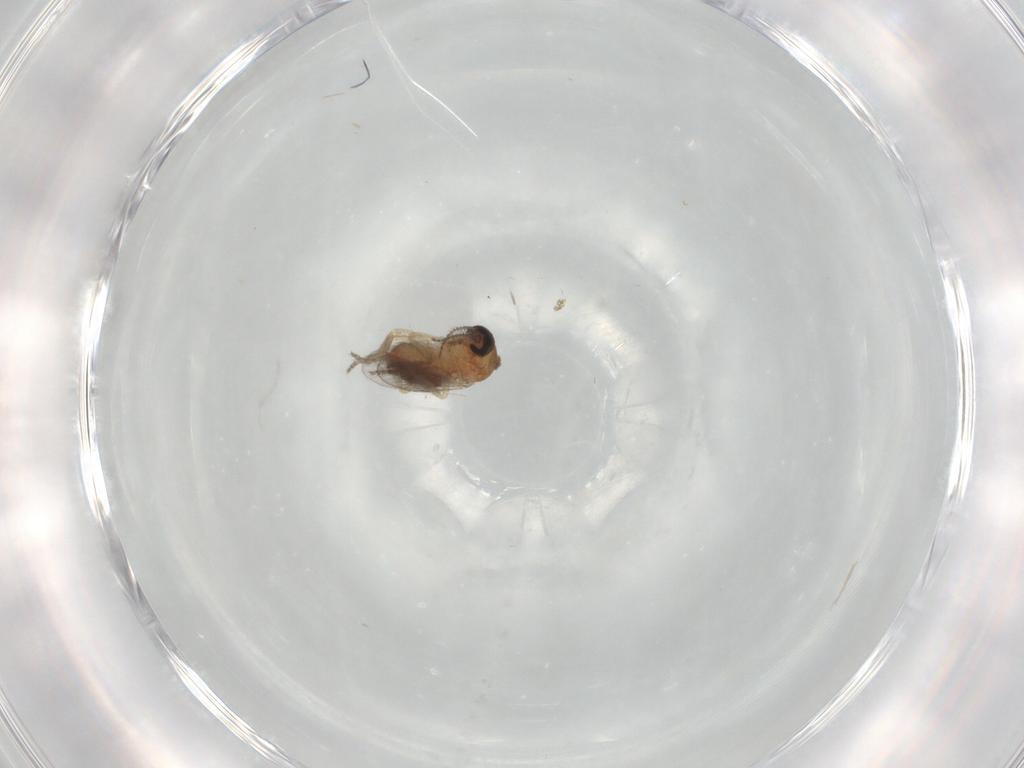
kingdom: Animalia
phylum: Arthropoda
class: Insecta
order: Diptera
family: Ceratopogonidae
